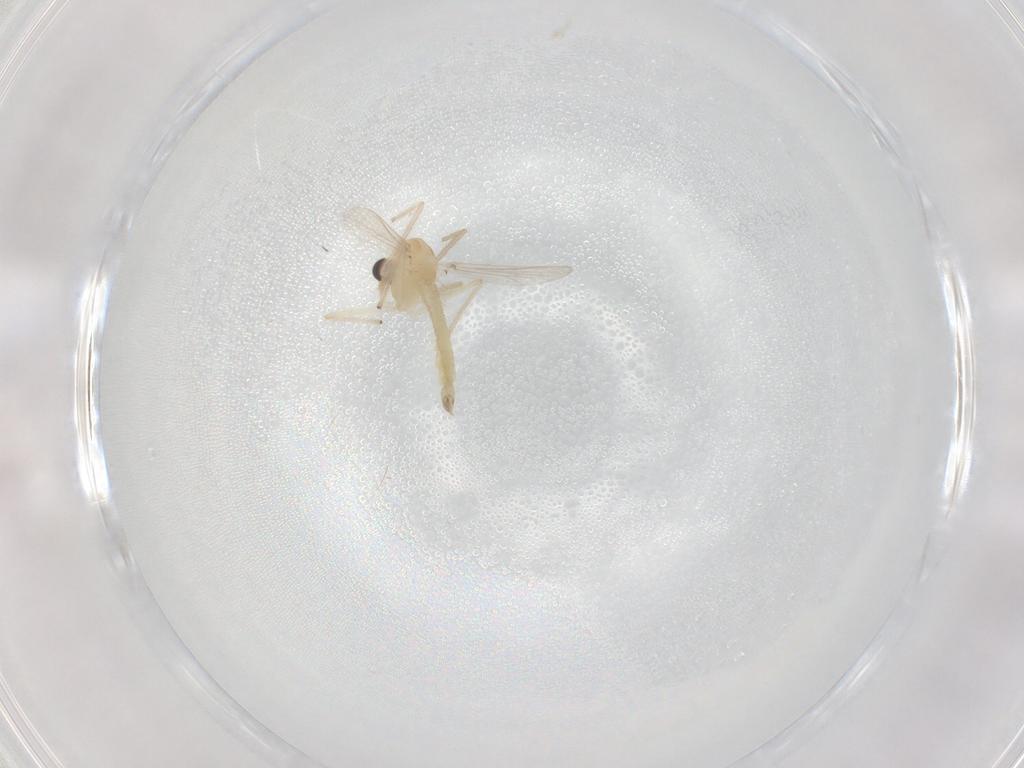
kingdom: Animalia
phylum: Arthropoda
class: Insecta
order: Diptera
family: Chironomidae
